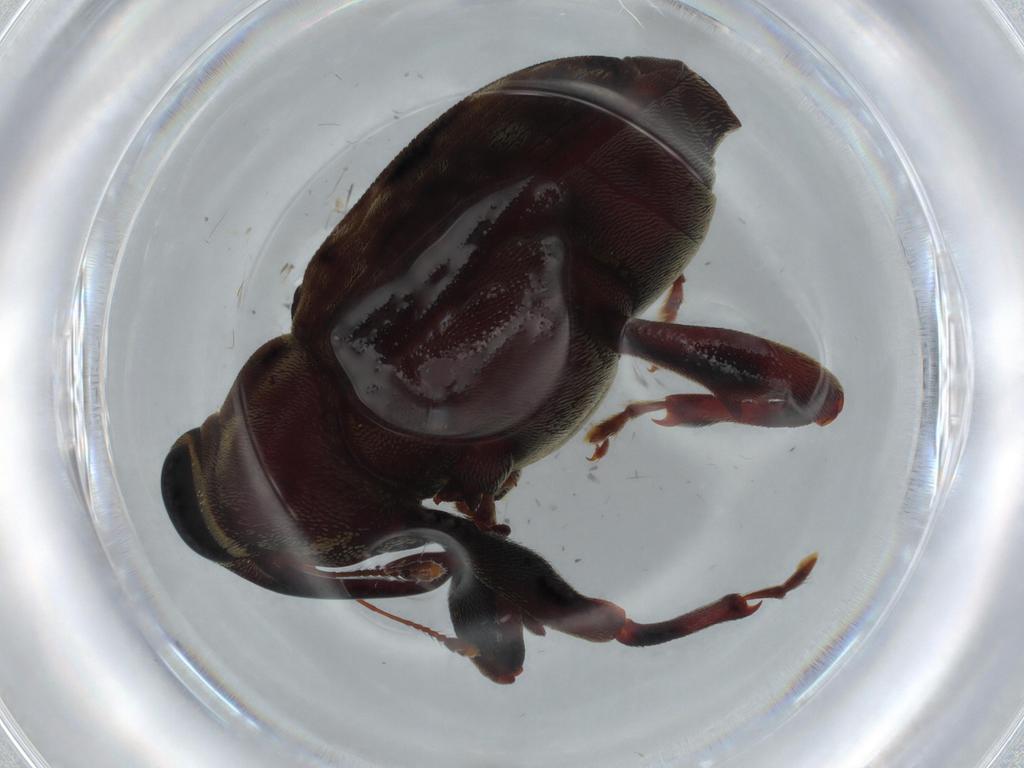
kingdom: Animalia
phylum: Arthropoda
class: Insecta
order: Coleoptera
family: Curculionidae
